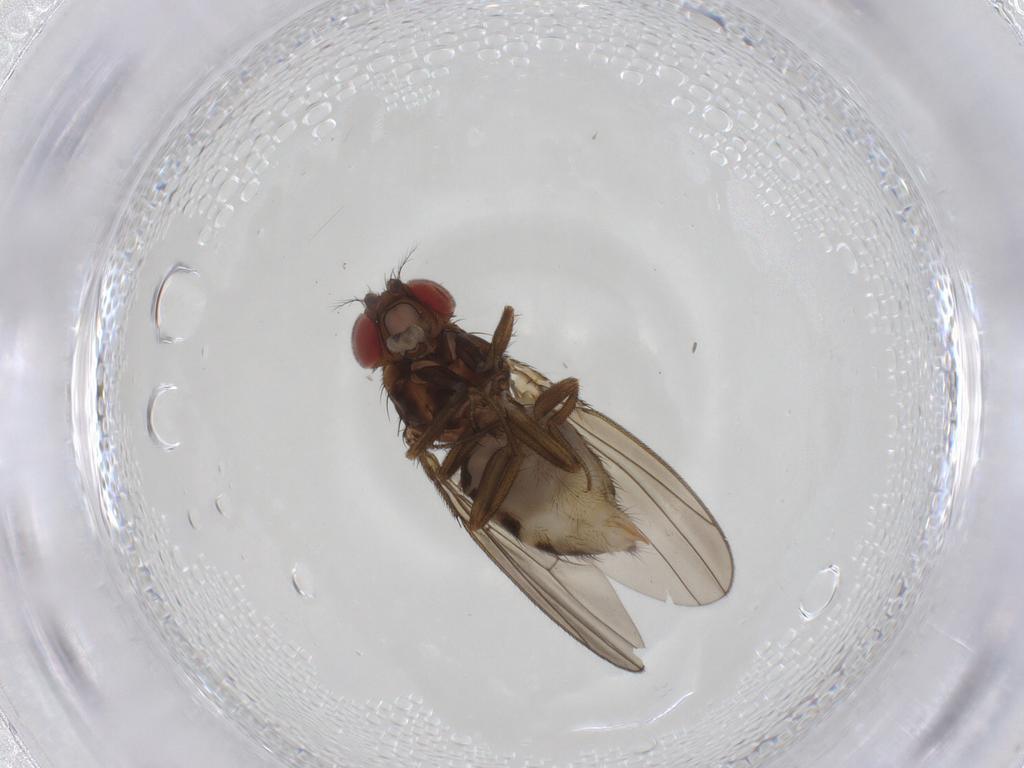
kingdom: Animalia
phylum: Arthropoda
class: Insecta
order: Diptera
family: Drosophilidae
